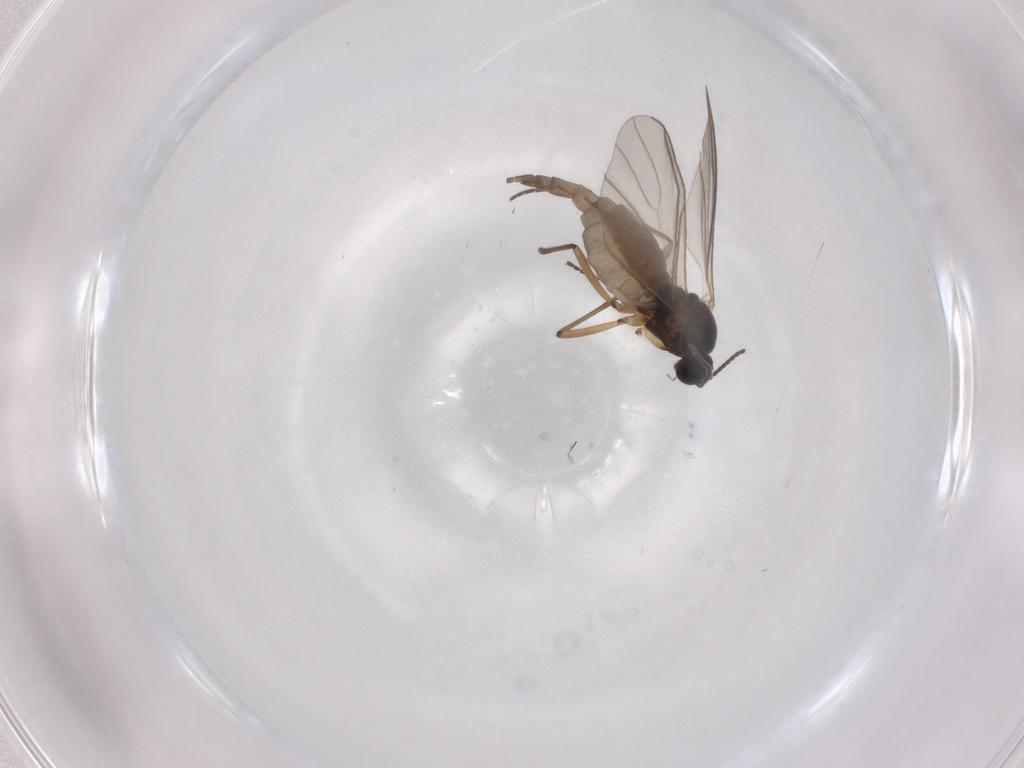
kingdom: Animalia
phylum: Arthropoda
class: Insecta
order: Diptera
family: Sciaridae
